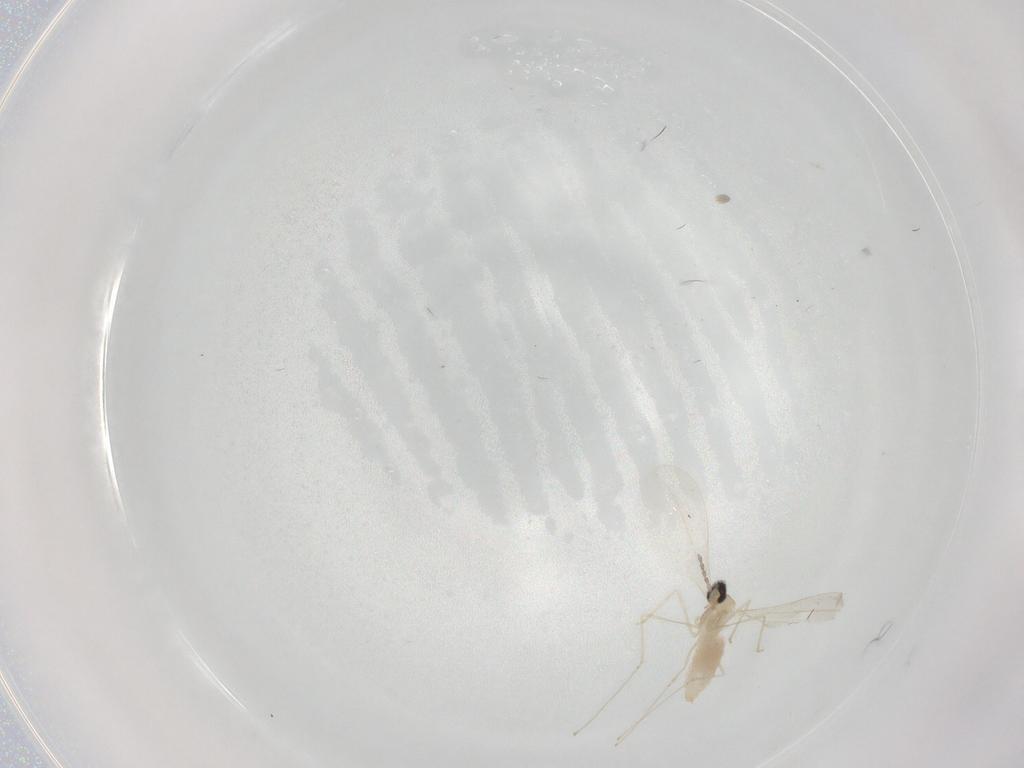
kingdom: Animalia
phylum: Arthropoda
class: Insecta
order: Diptera
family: Cecidomyiidae
